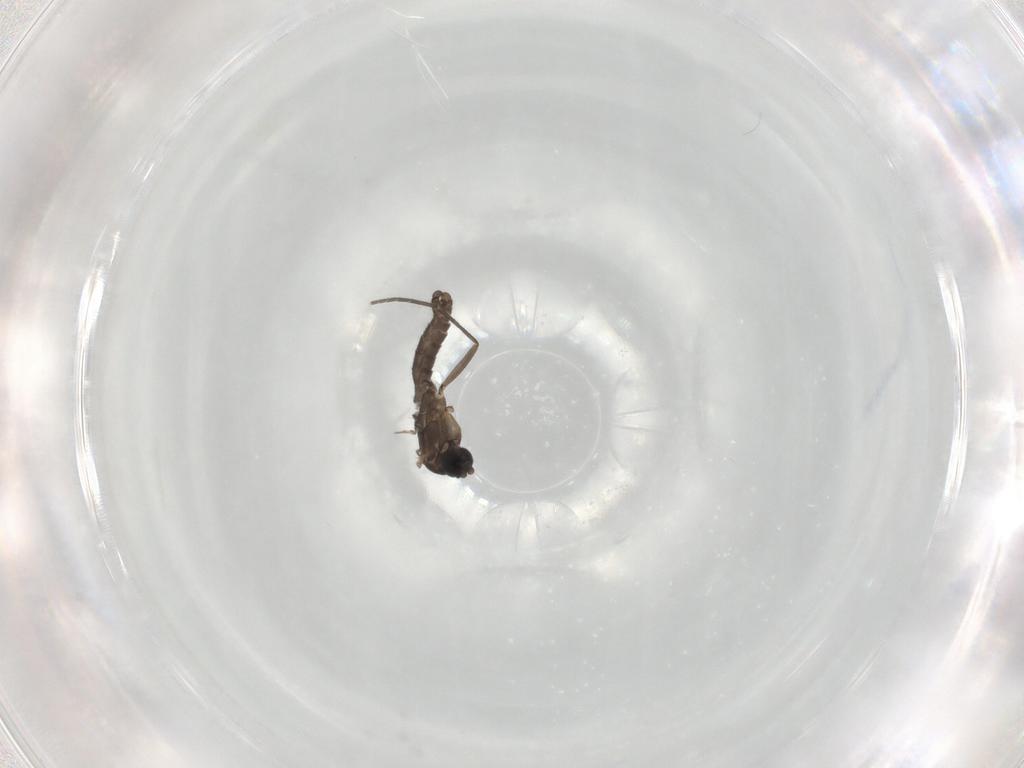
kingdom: Animalia
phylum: Arthropoda
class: Insecta
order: Diptera
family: Sciaridae
